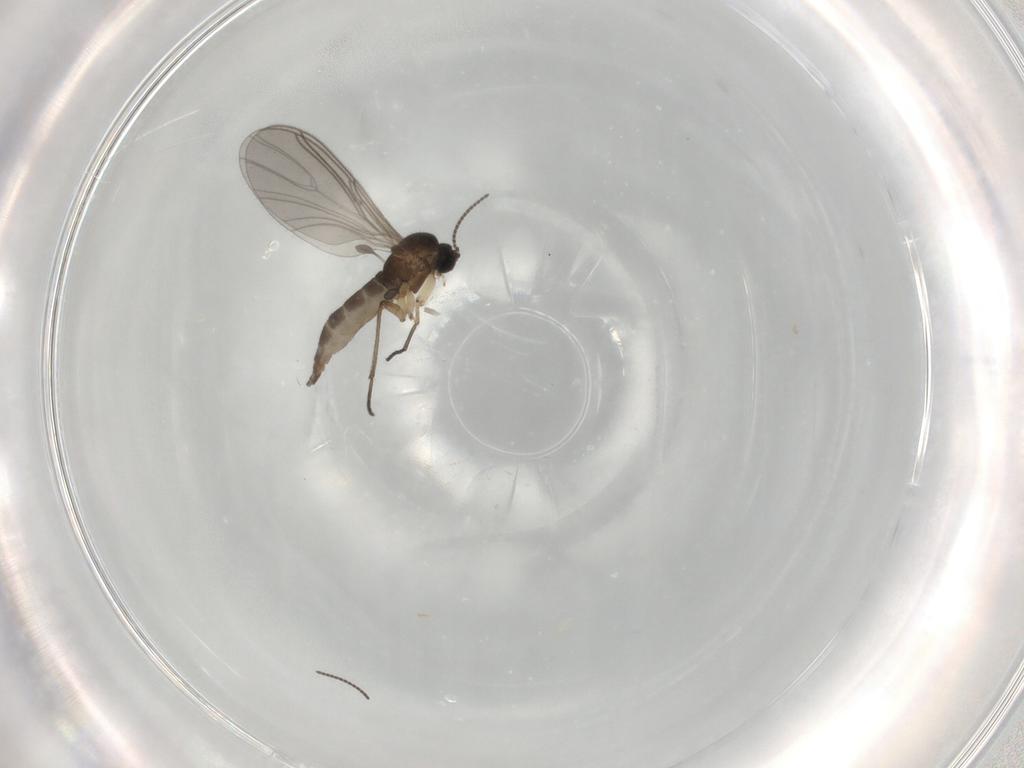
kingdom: Animalia
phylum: Arthropoda
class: Insecta
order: Diptera
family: Sciaridae
